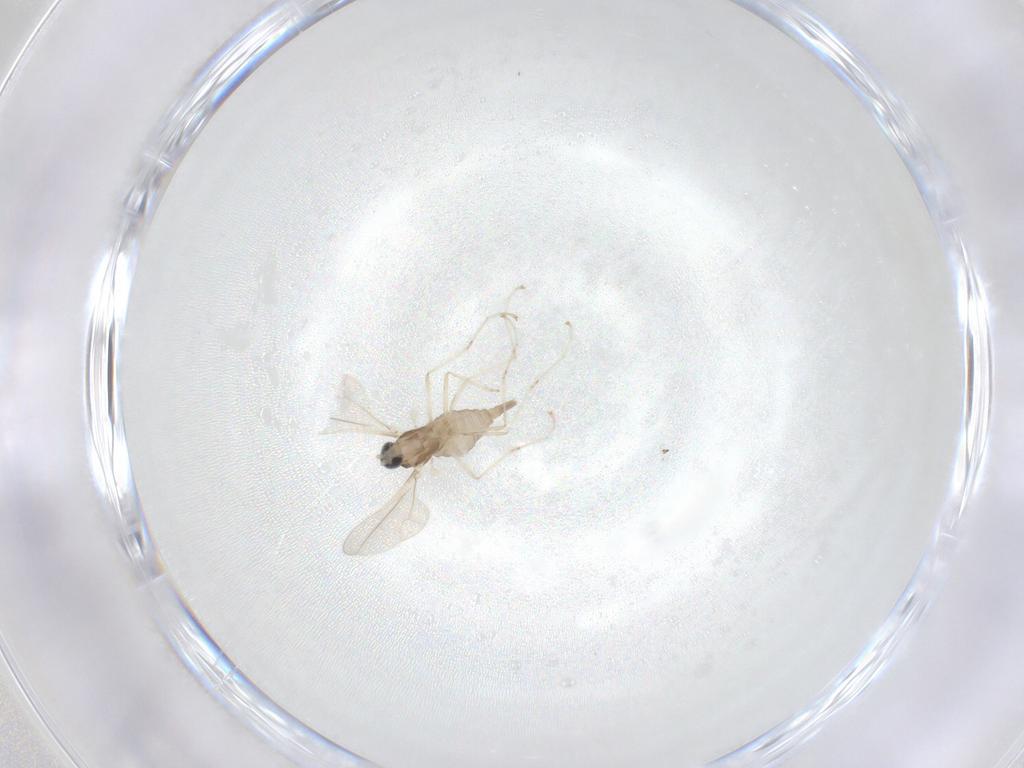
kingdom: Animalia
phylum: Arthropoda
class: Insecta
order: Diptera
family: Cecidomyiidae
